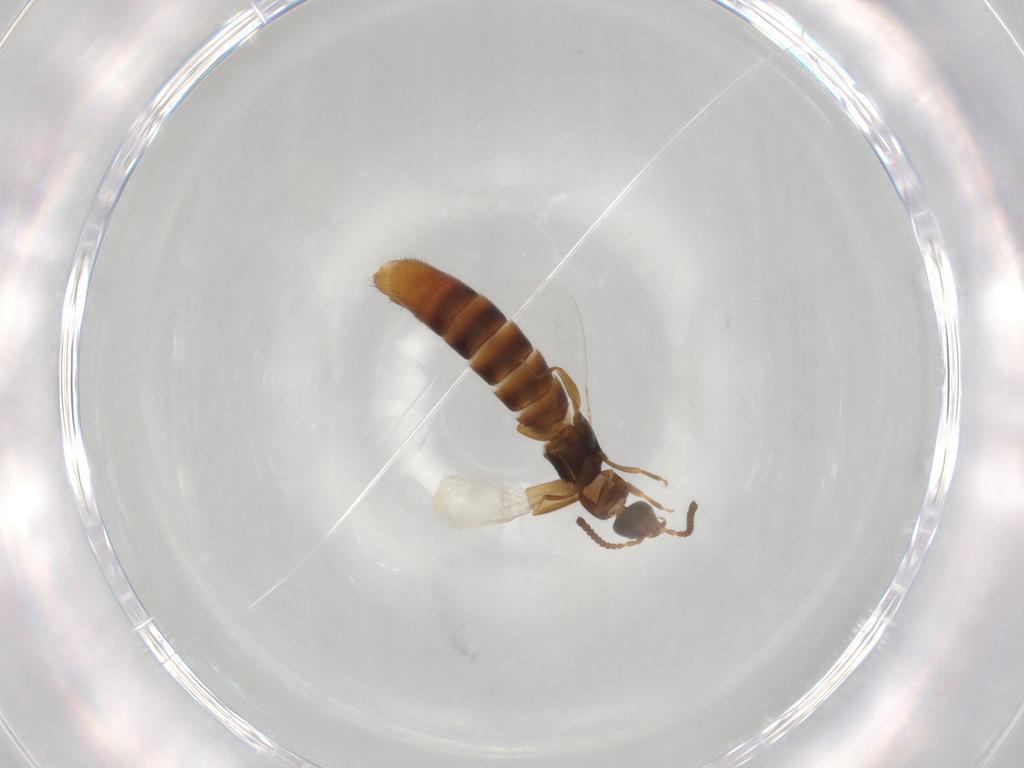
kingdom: Animalia
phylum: Arthropoda
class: Insecta
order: Coleoptera
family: Staphylinidae
